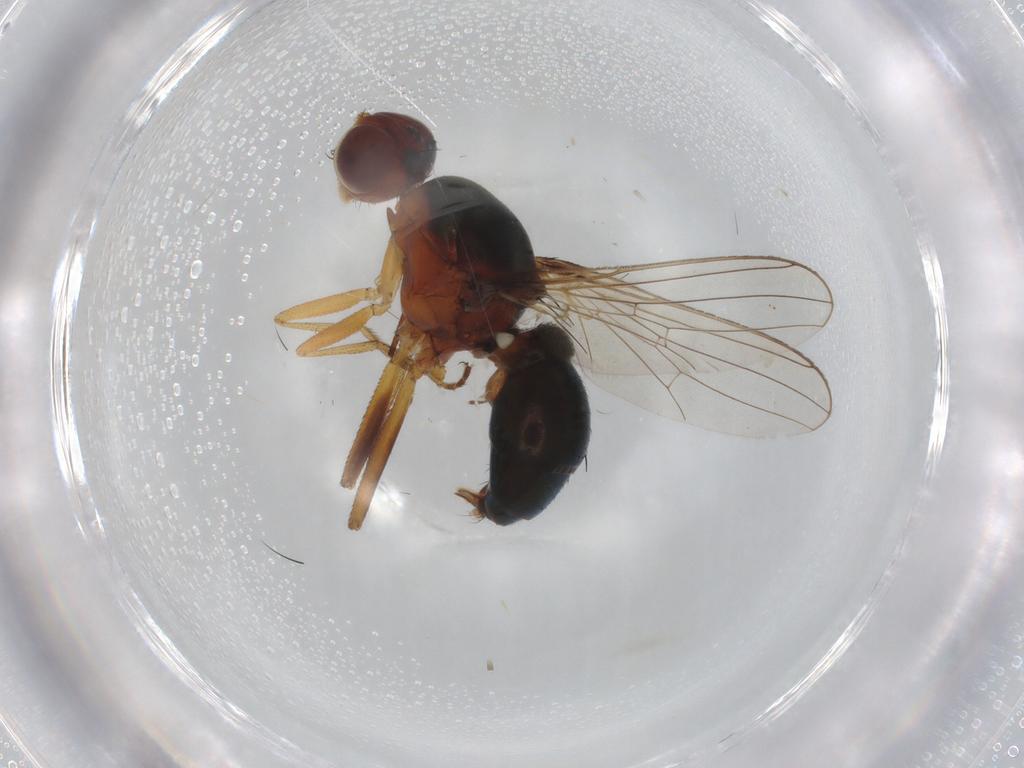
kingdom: Animalia
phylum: Arthropoda
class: Insecta
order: Diptera
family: Sepsidae
